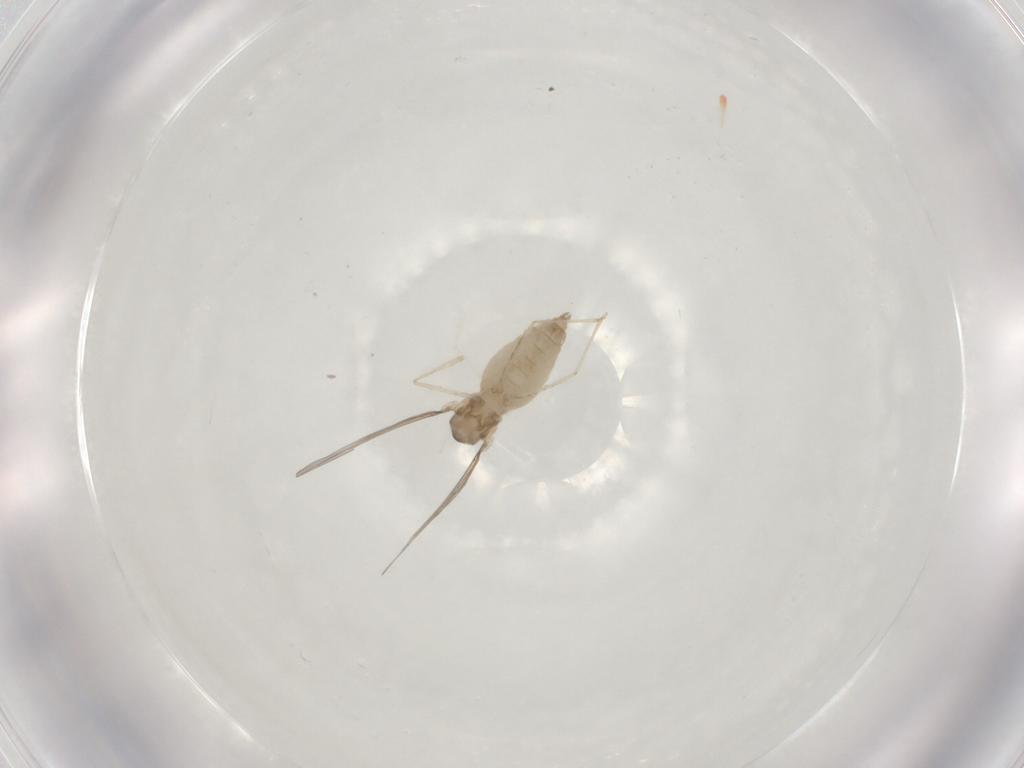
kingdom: Animalia
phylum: Arthropoda
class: Insecta
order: Diptera
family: Cecidomyiidae
